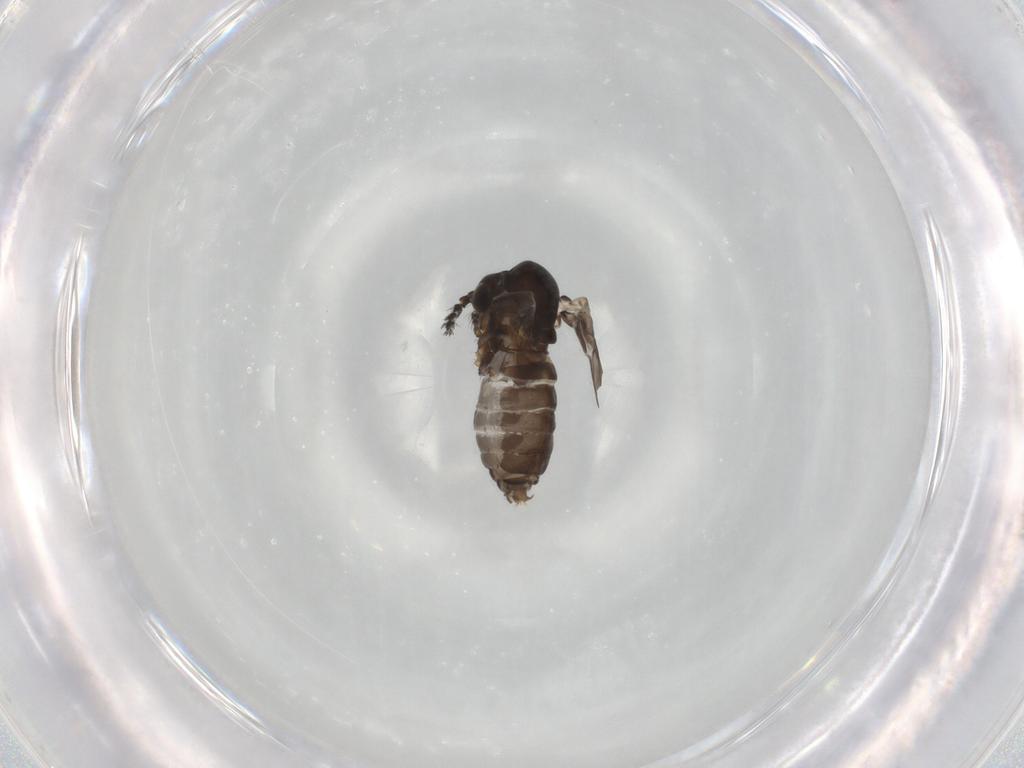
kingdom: Animalia
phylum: Arthropoda
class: Insecta
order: Diptera
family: Psychodidae
